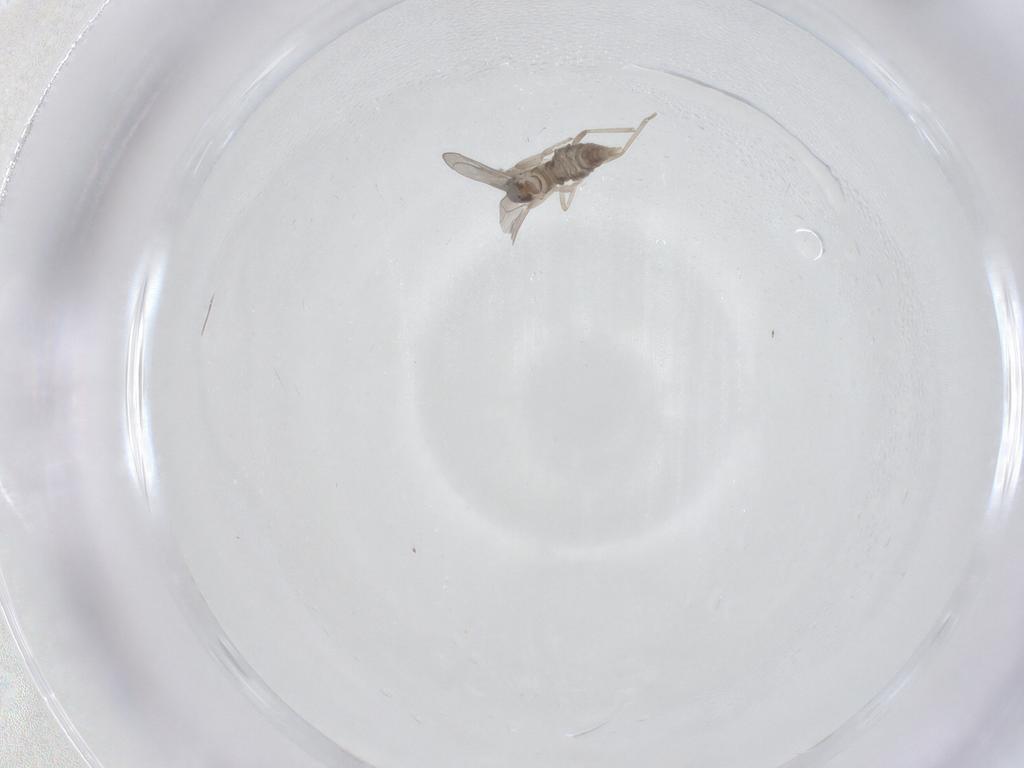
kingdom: Animalia
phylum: Arthropoda
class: Insecta
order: Diptera
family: Cecidomyiidae
